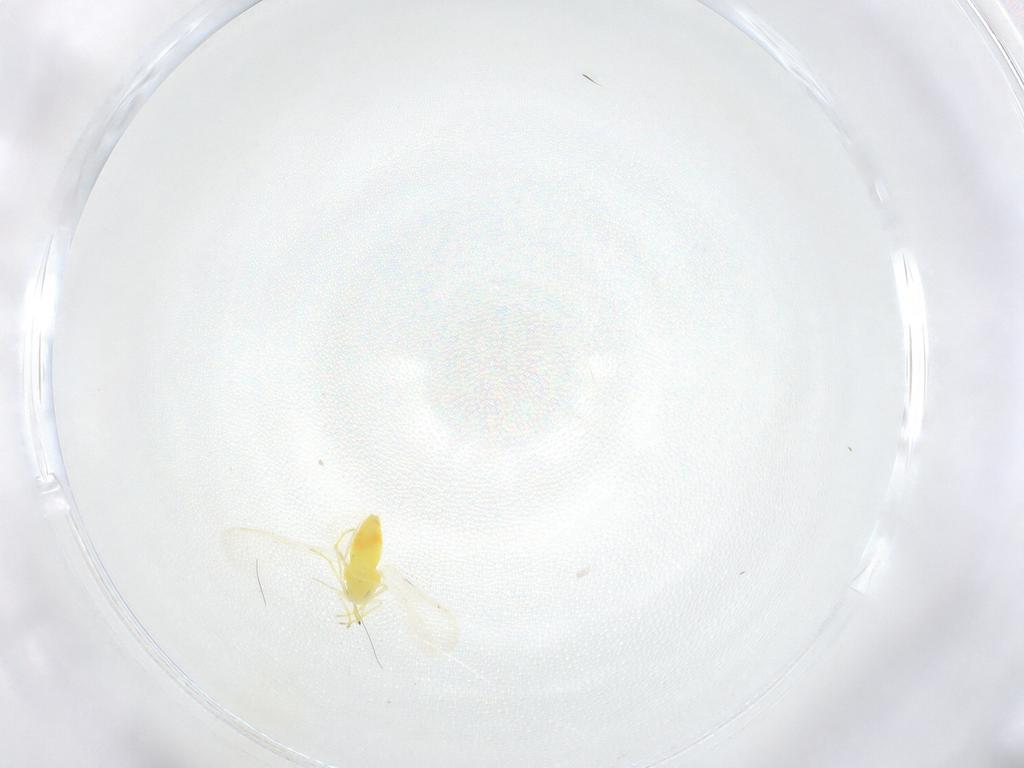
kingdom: Animalia
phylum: Arthropoda
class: Insecta
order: Hemiptera
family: Aleyrodidae
